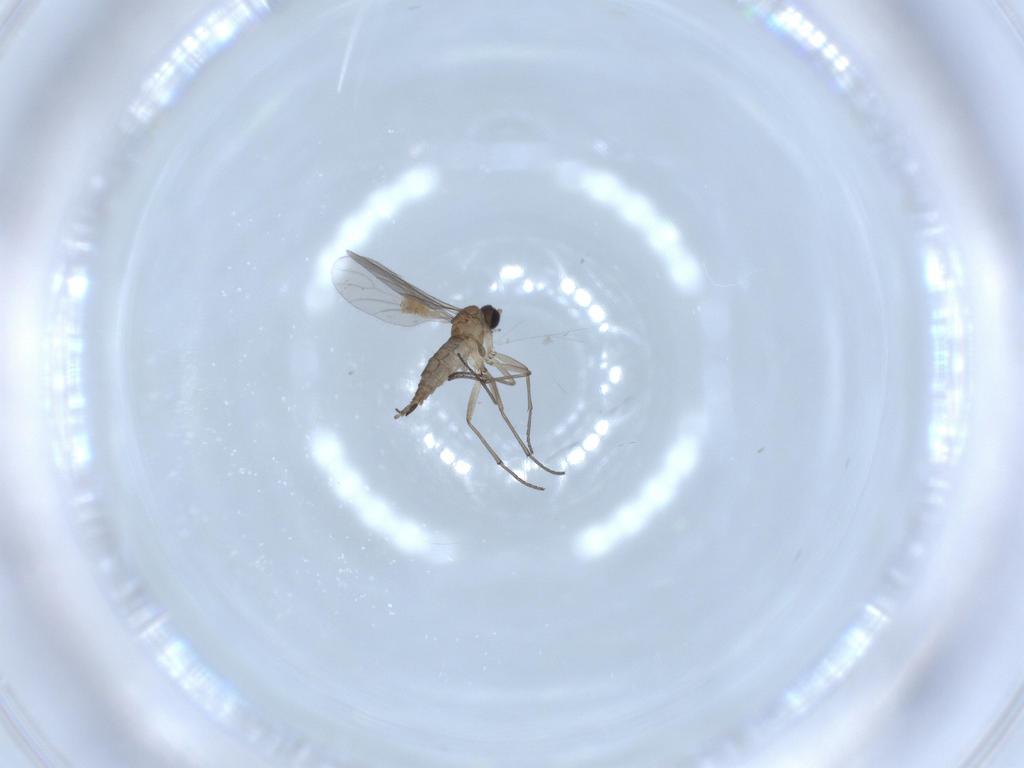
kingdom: Animalia
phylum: Arthropoda
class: Insecta
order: Diptera
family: Sciaridae
